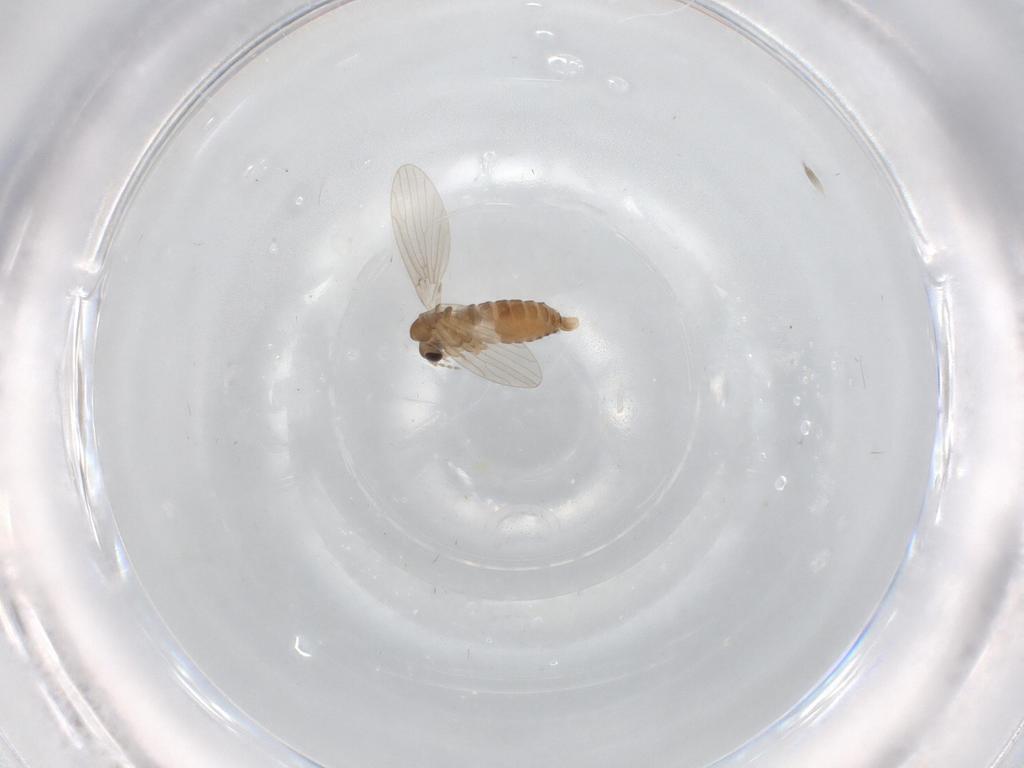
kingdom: Animalia
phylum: Arthropoda
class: Insecta
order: Diptera
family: Cecidomyiidae
